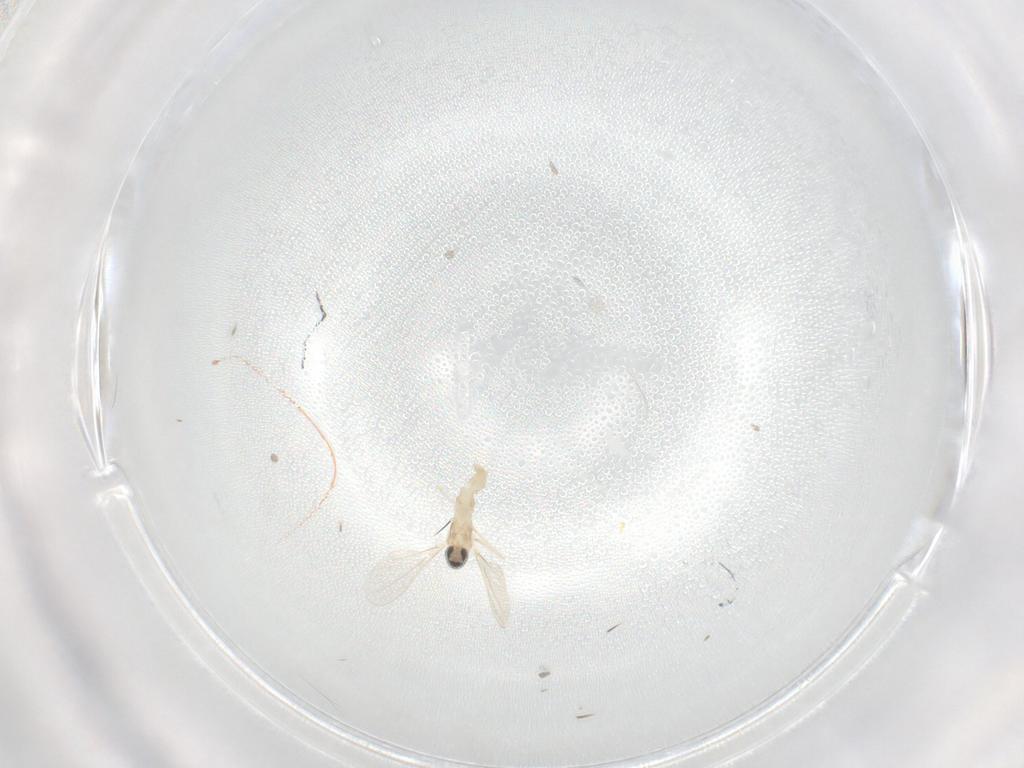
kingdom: Animalia
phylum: Arthropoda
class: Insecta
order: Diptera
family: Cecidomyiidae
